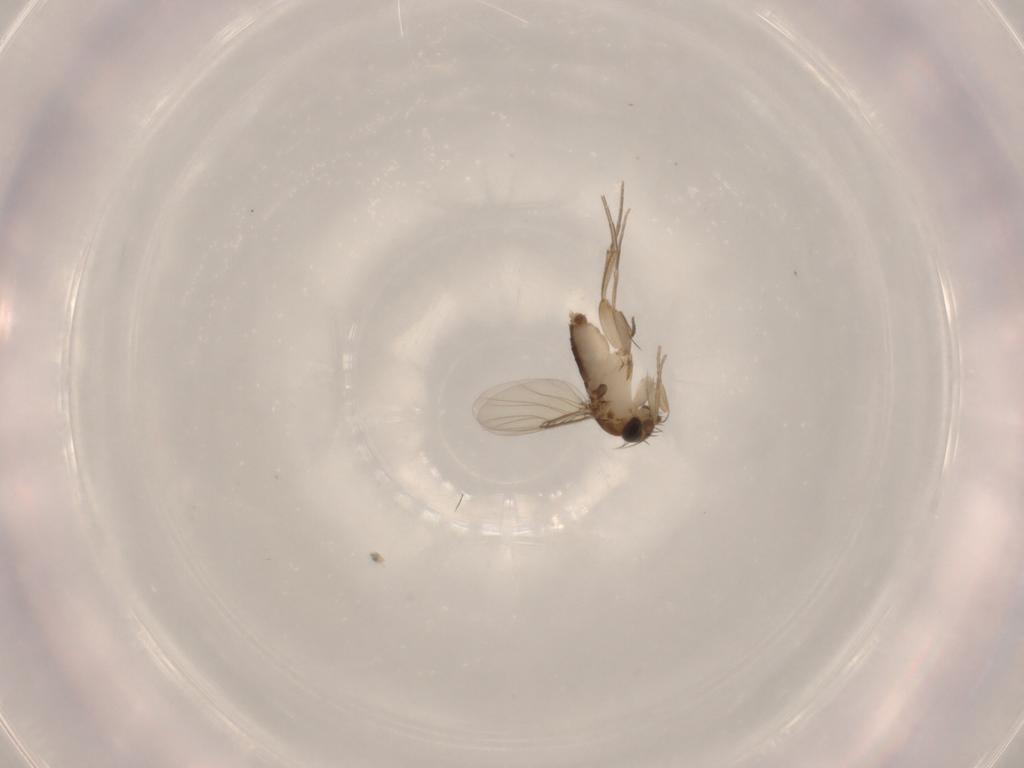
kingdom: Animalia
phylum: Arthropoda
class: Insecta
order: Diptera
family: Phoridae
